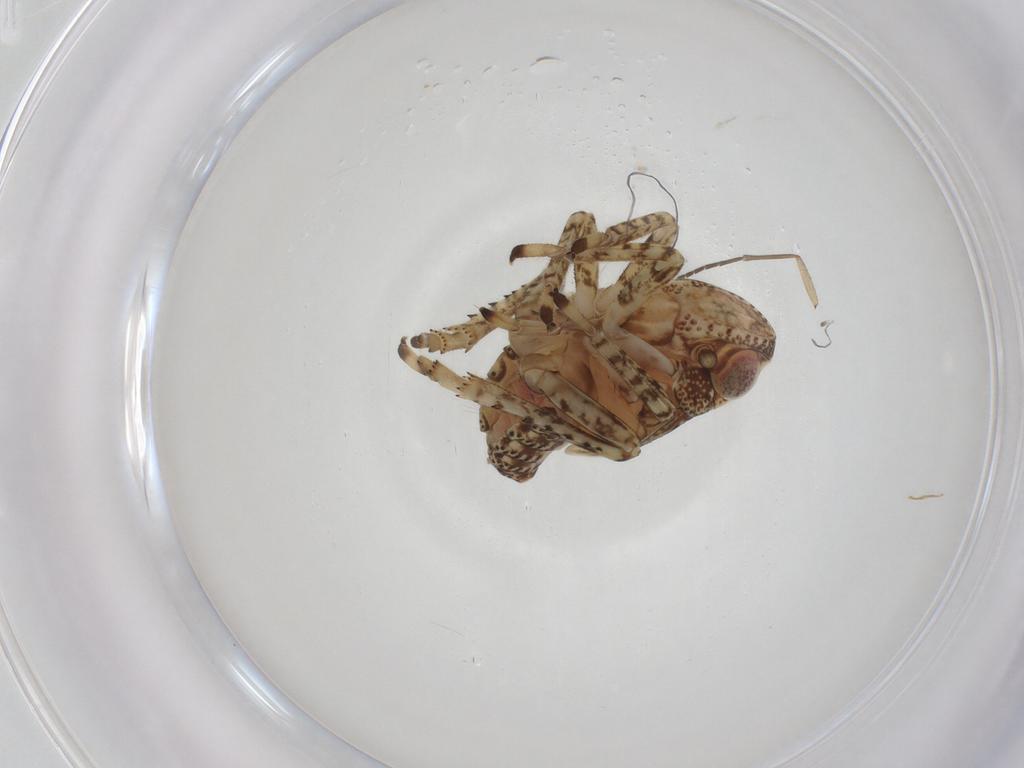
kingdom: Animalia
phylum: Arthropoda
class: Insecta
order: Hemiptera
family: Tropiduchidae
